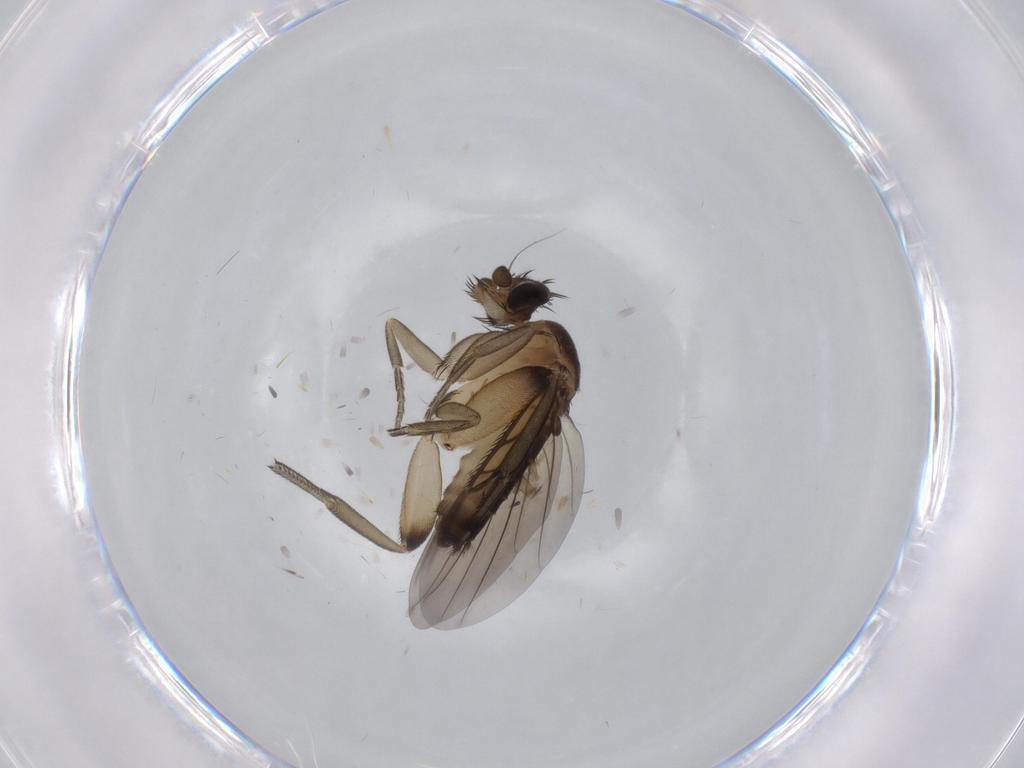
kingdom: Animalia
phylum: Arthropoda
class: Insecta
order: Diptera
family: Phoridae
